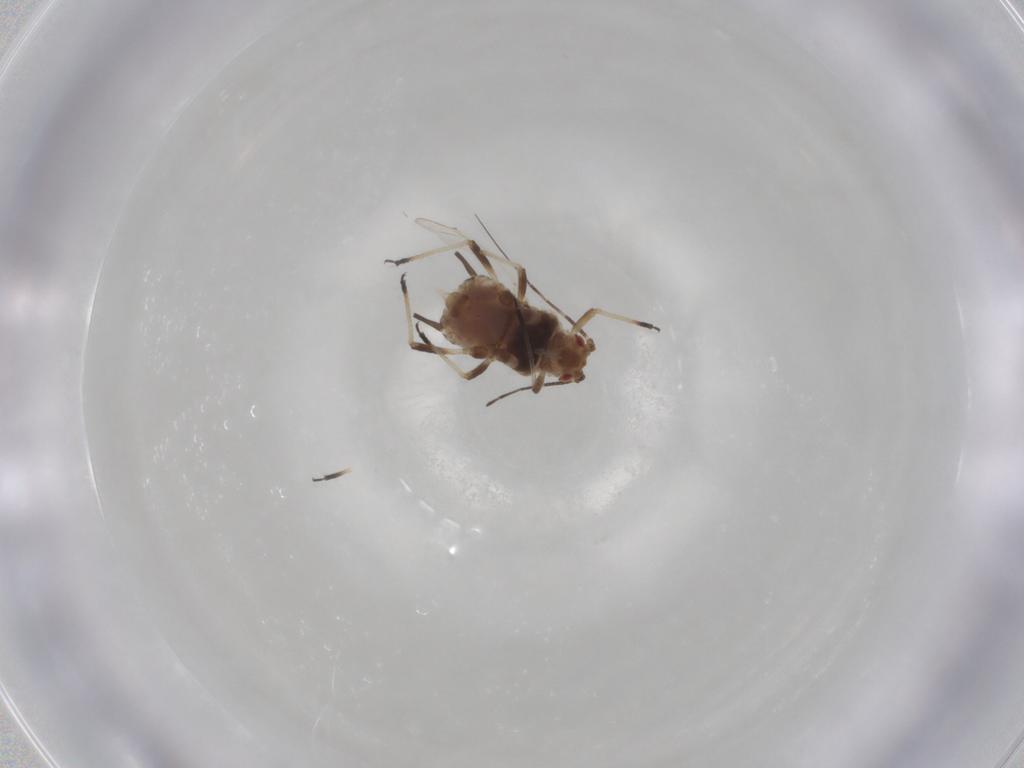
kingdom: Animalia
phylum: Arthropoda
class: Insecta
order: Hemiptera
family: Aphididae
